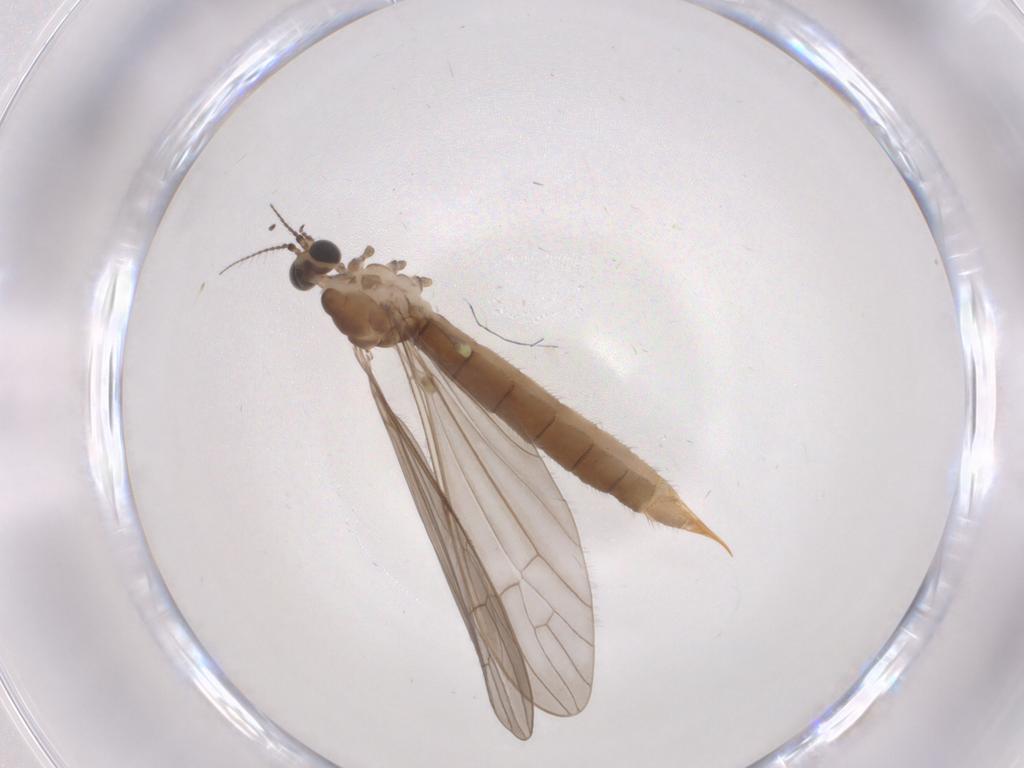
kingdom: Animalia
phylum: Arthropoda
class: Insecta
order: Diptera
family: Limoniidae
